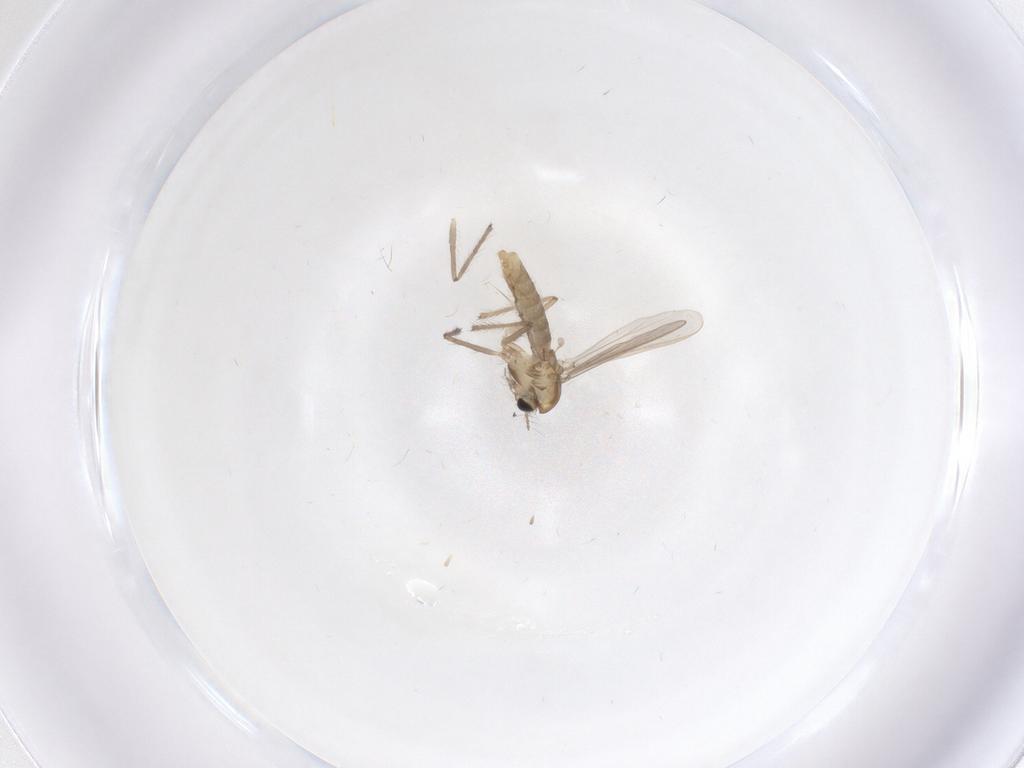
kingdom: Animalia
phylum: Arthropoda
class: Insecta
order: Diptera
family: Chironomidae
